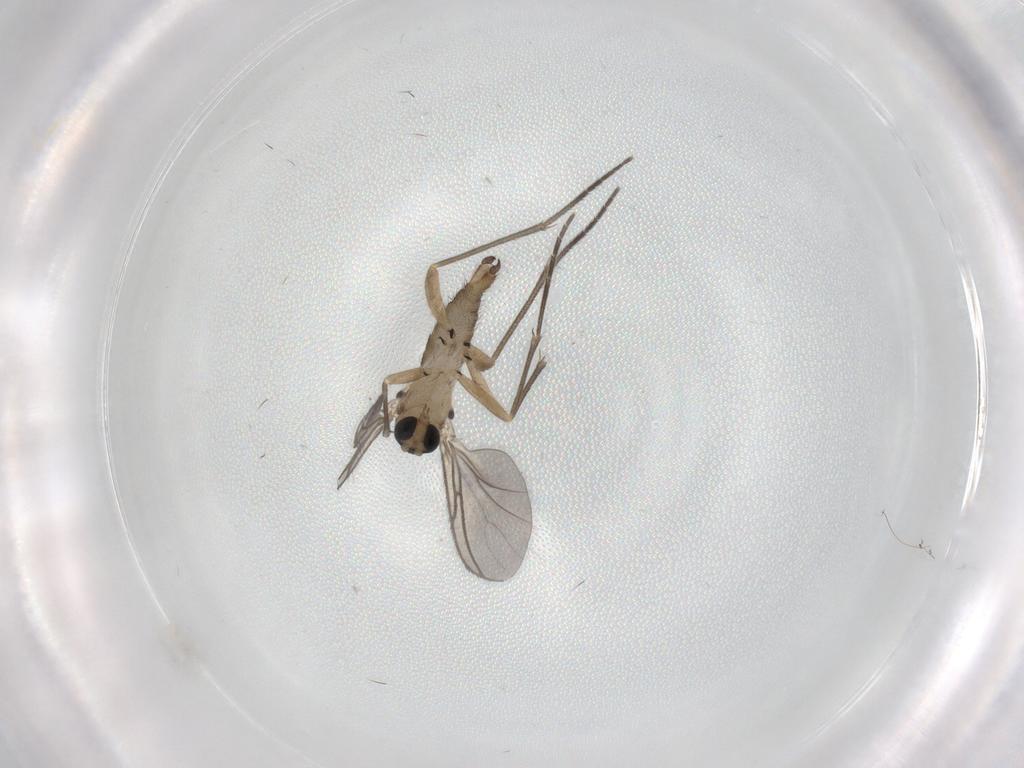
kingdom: Animalia
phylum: Arthropoda
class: Insecta
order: Diptera
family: Sciaridae
